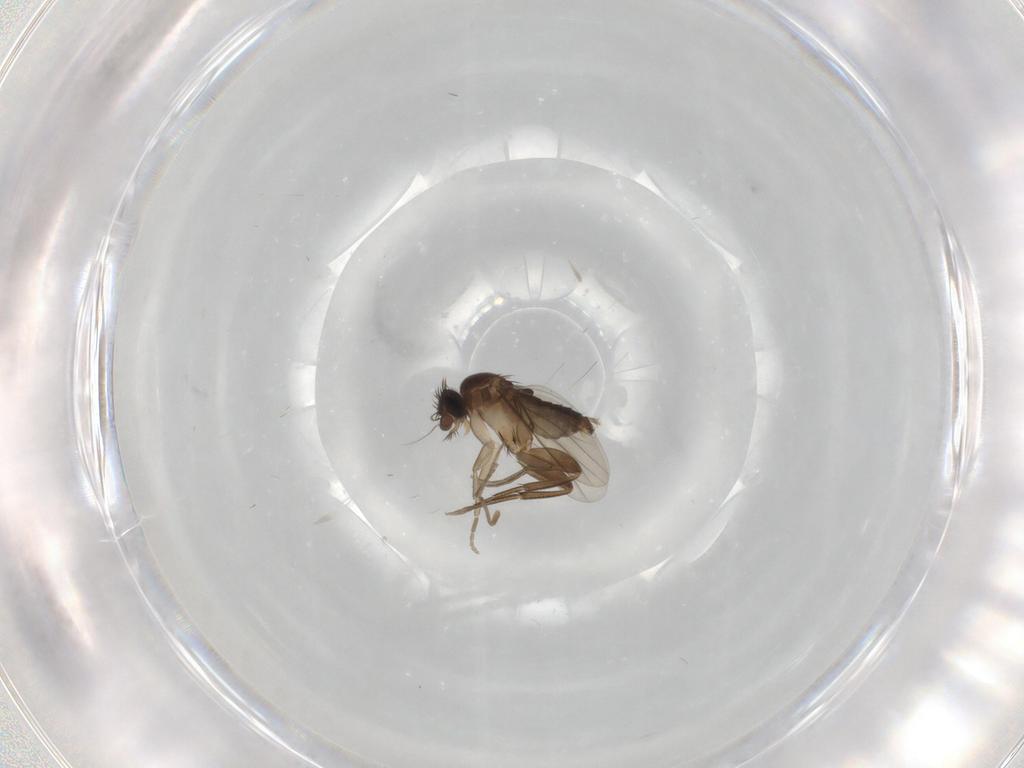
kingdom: Animalia
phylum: Arthropoda
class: Insecta
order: Diptera
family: Phoridae
